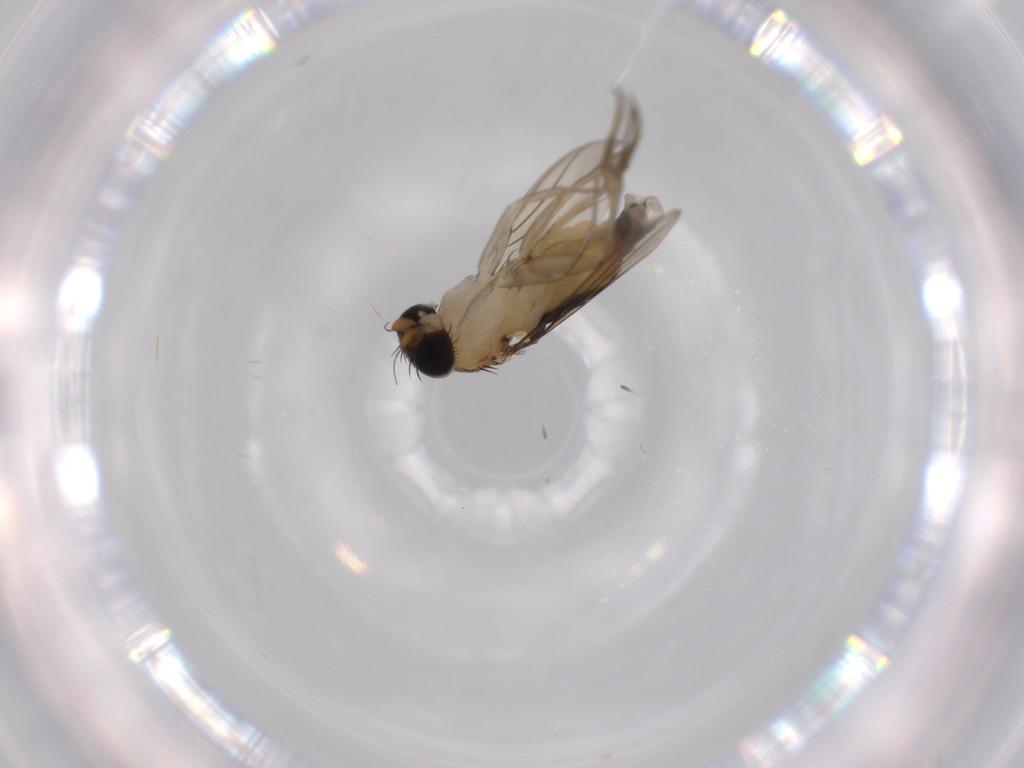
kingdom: Animalia
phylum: Arthropoda
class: Insecta
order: Diptera
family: Phoridae
